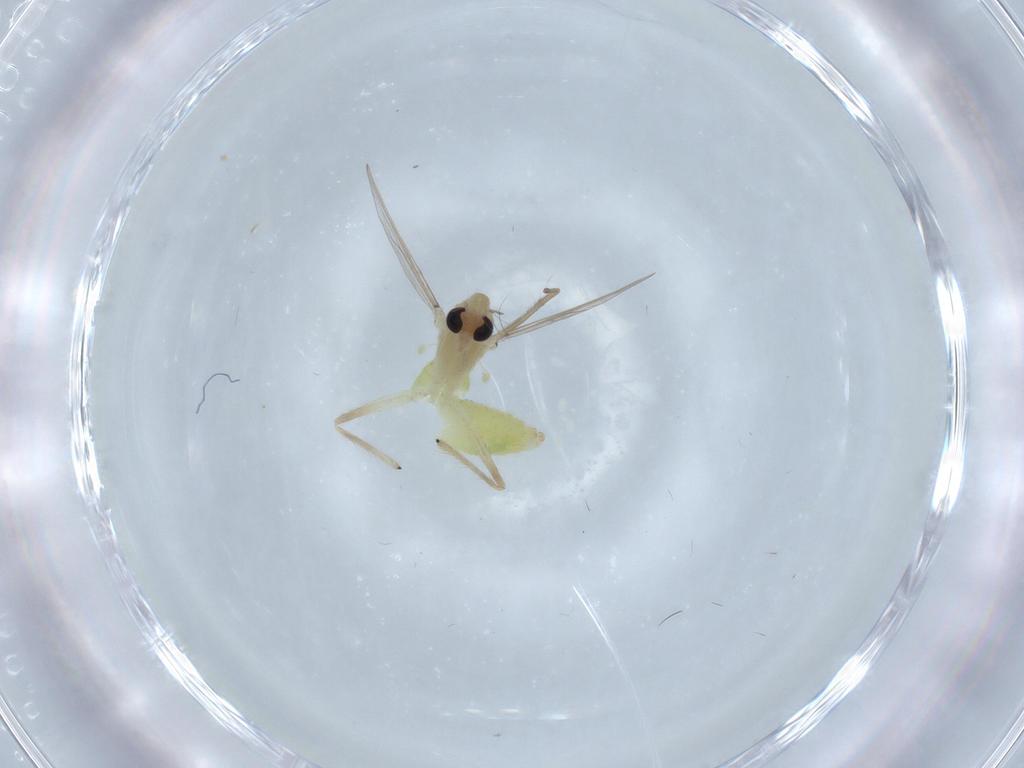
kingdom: Animalia
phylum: Arthropoda
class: Insecta
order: Diptera
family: Chironomidae
